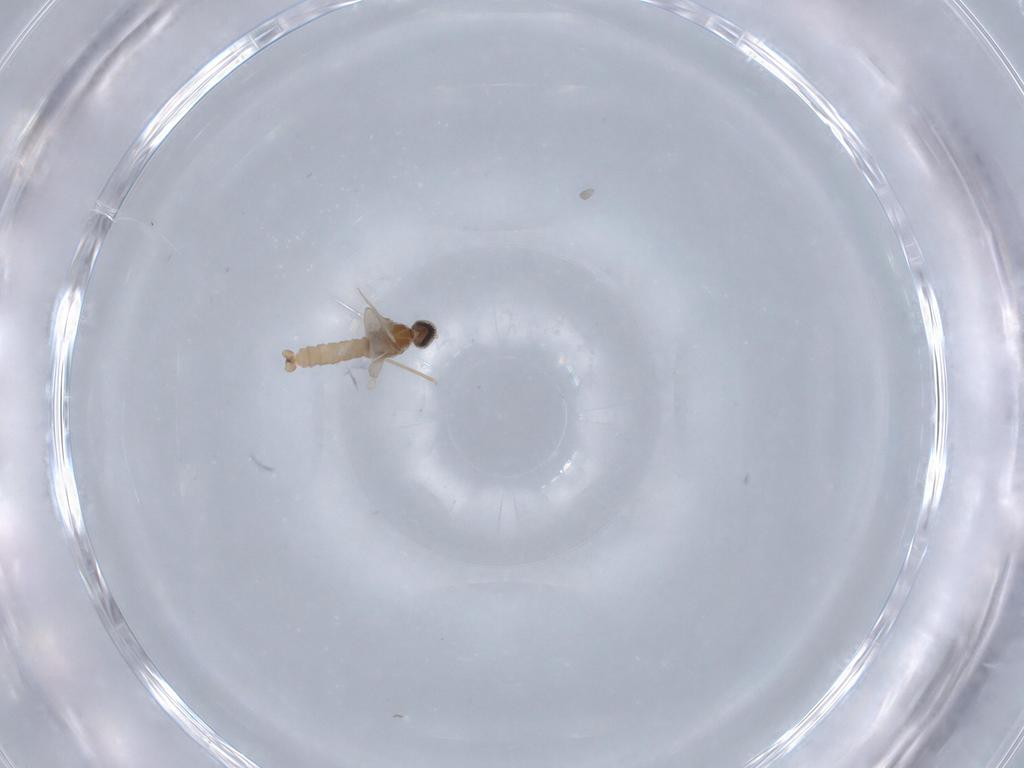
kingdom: Animalia
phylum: Arthropoda
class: Insecta
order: Diptera
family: Cecidomyiidae
